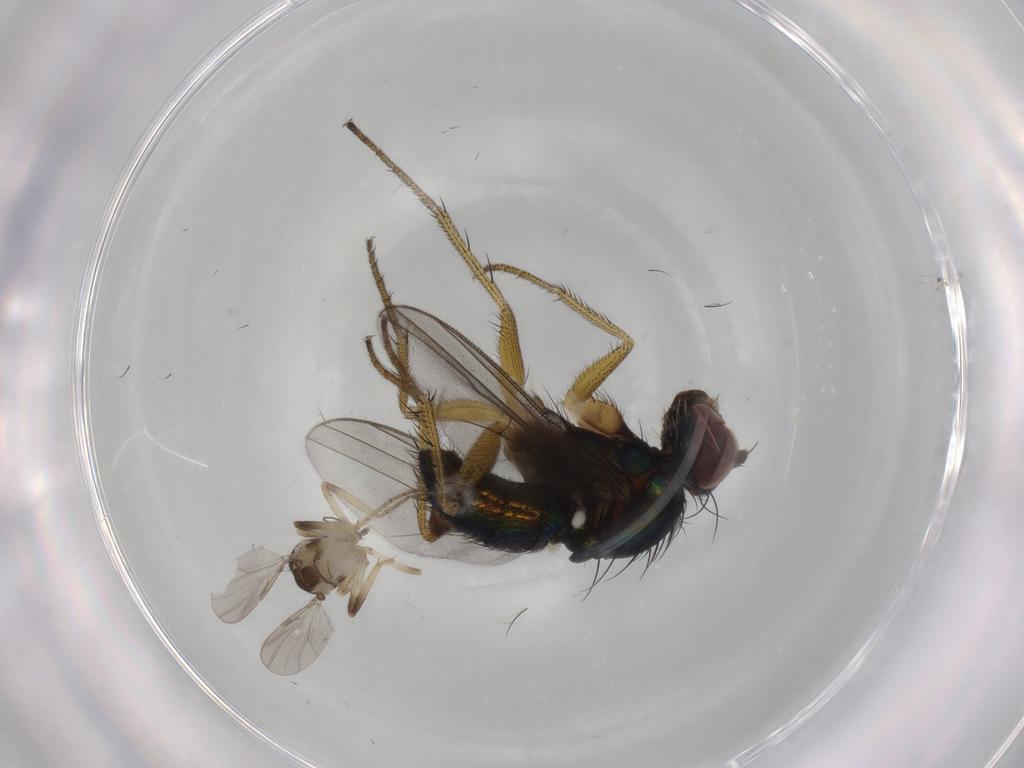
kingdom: Animalia
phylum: Arthropoda
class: Insecta
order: Diptera
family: Dolichopodidae
